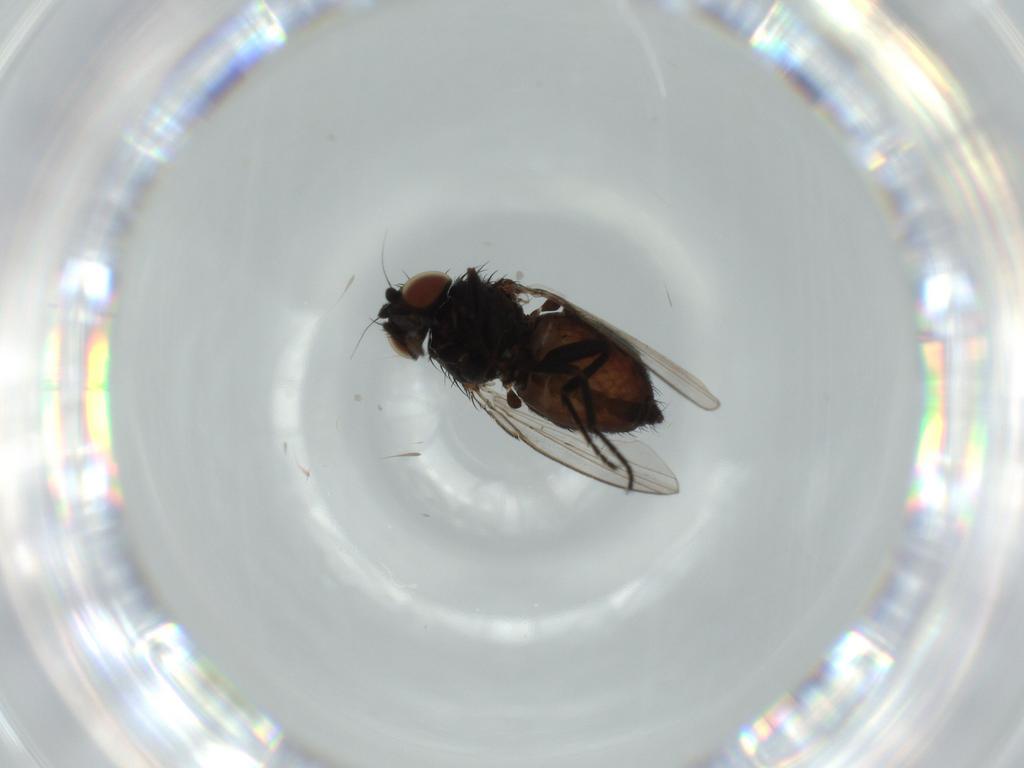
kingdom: Animalia
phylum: Arthropoda
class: Insecta
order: Diptera
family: Milichiidae
